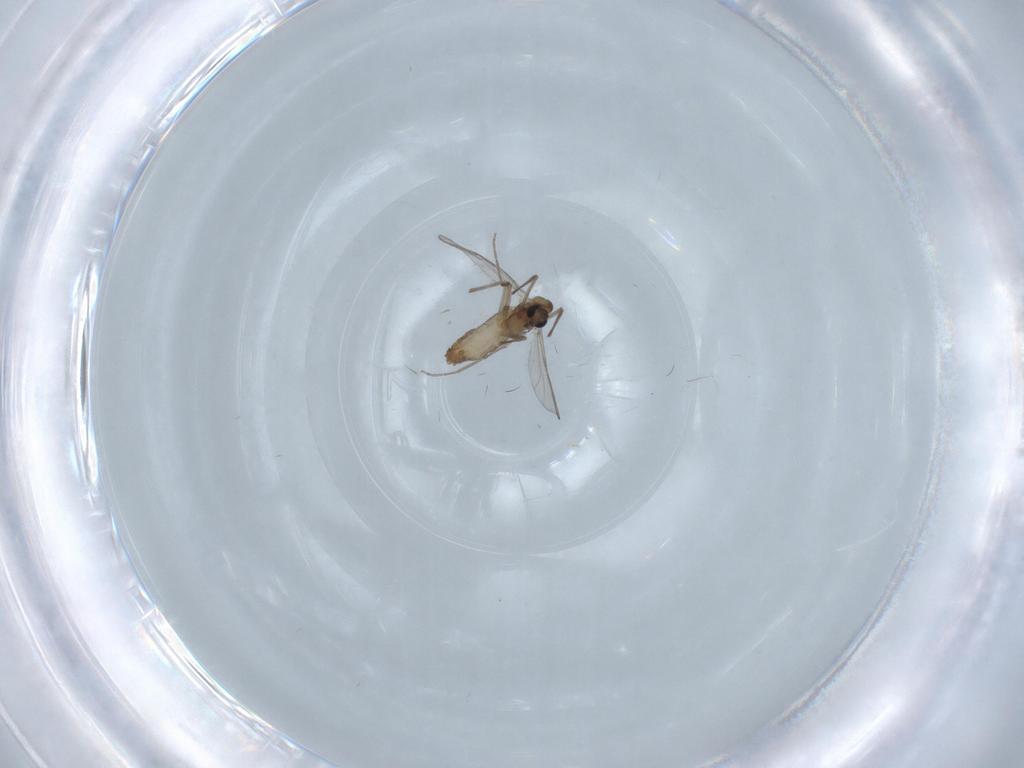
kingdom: Animalia
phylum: Arthropoda
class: Insecta
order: Diptera
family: Chironomidae
